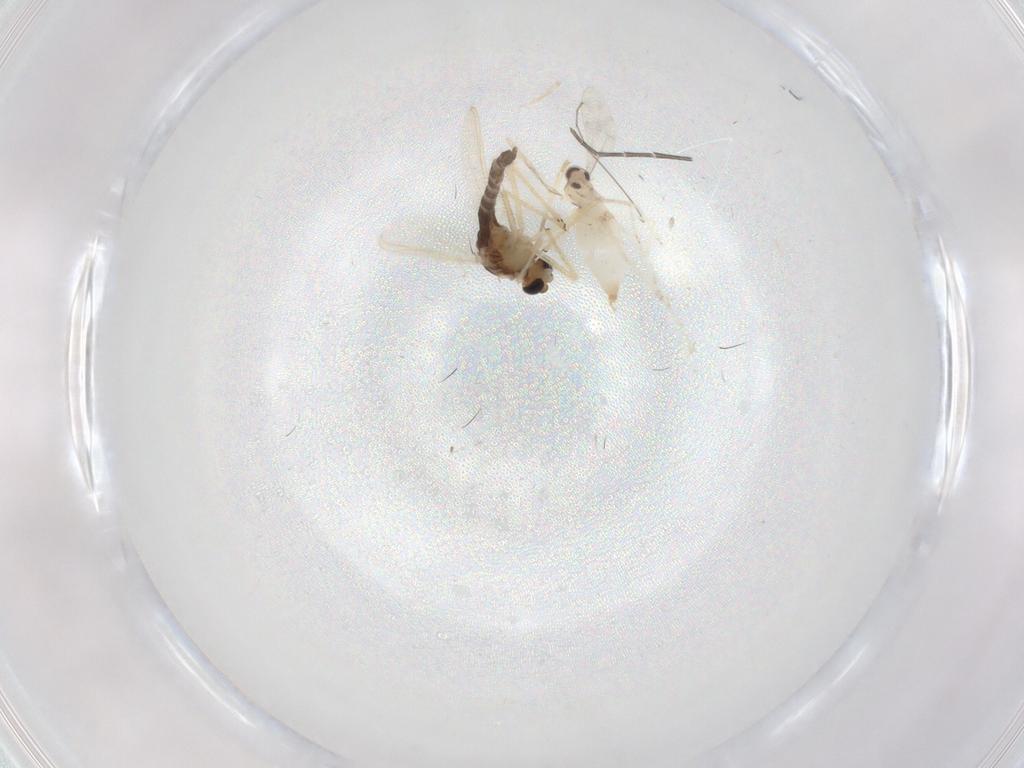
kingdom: Animalia
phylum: Arthropoda
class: Insecta
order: Diptera
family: Cecidomyiidae
